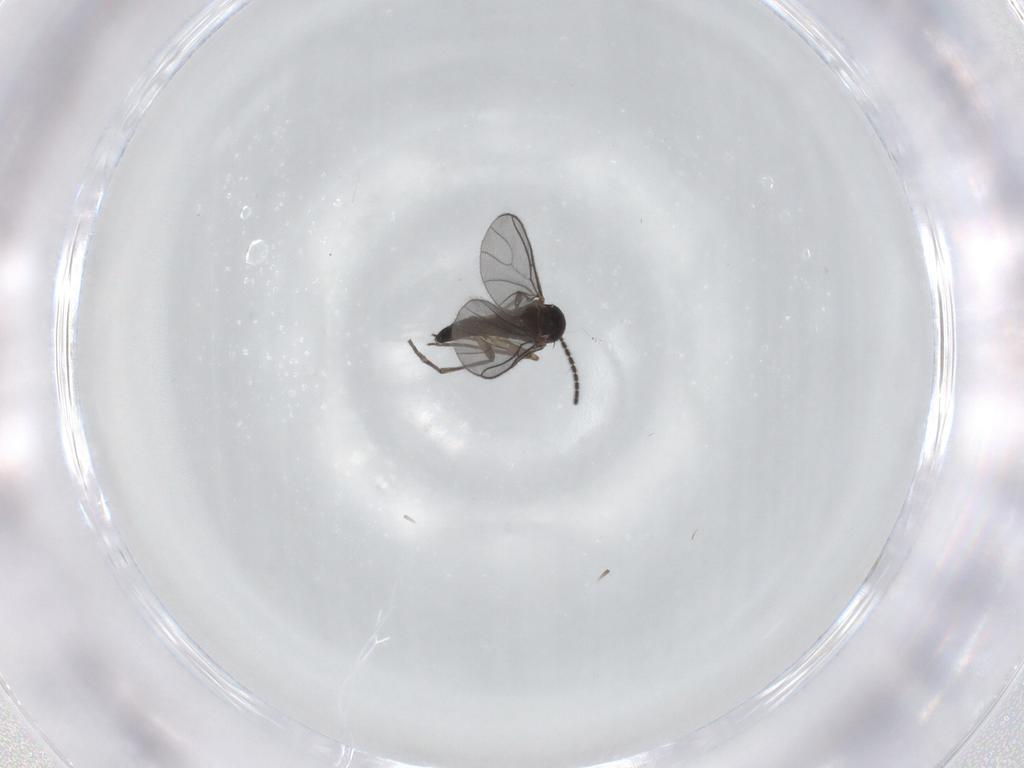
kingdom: Animalia
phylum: Arthropoda
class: Insecta
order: Diptera
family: Sciaridae
